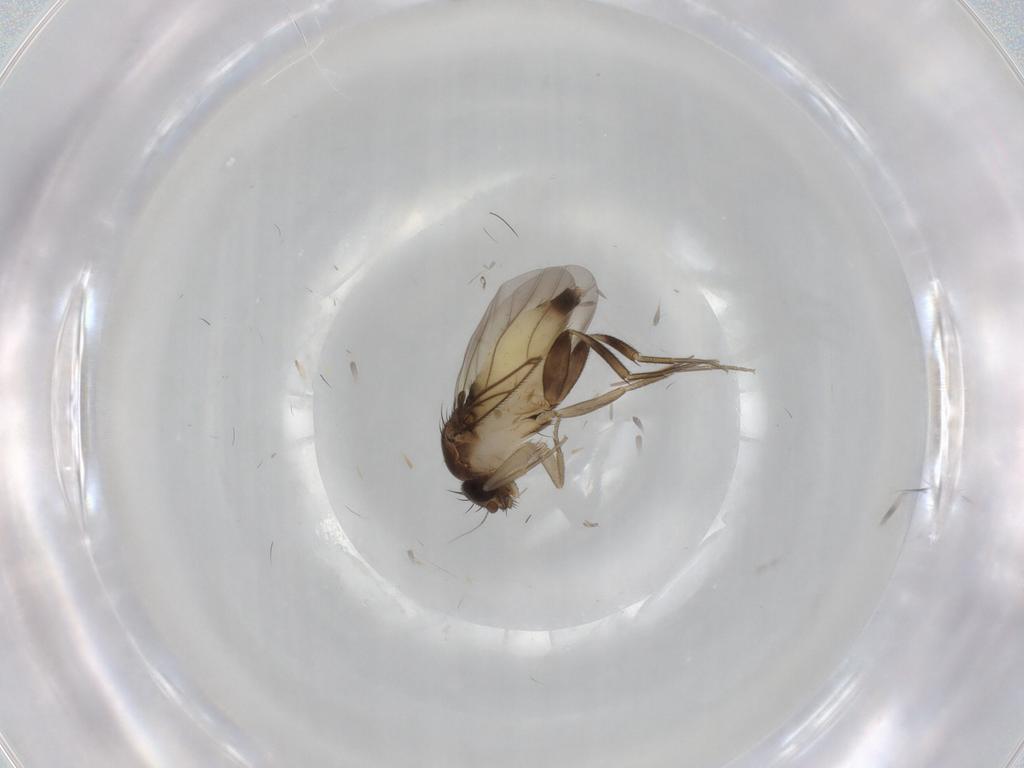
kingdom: Animalia
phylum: Arthropoda
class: Insecta
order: Diptera
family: Phoridae
